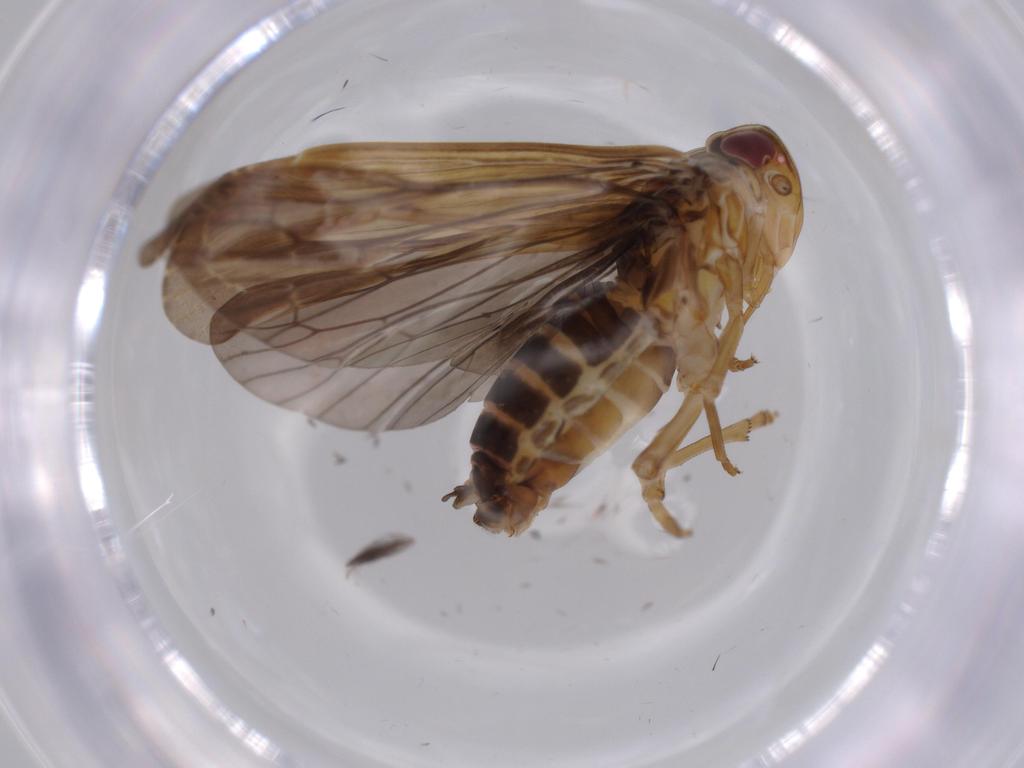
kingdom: Animalia
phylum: Arthropoda
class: Insecta
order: Hemiptera
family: Achilidae
